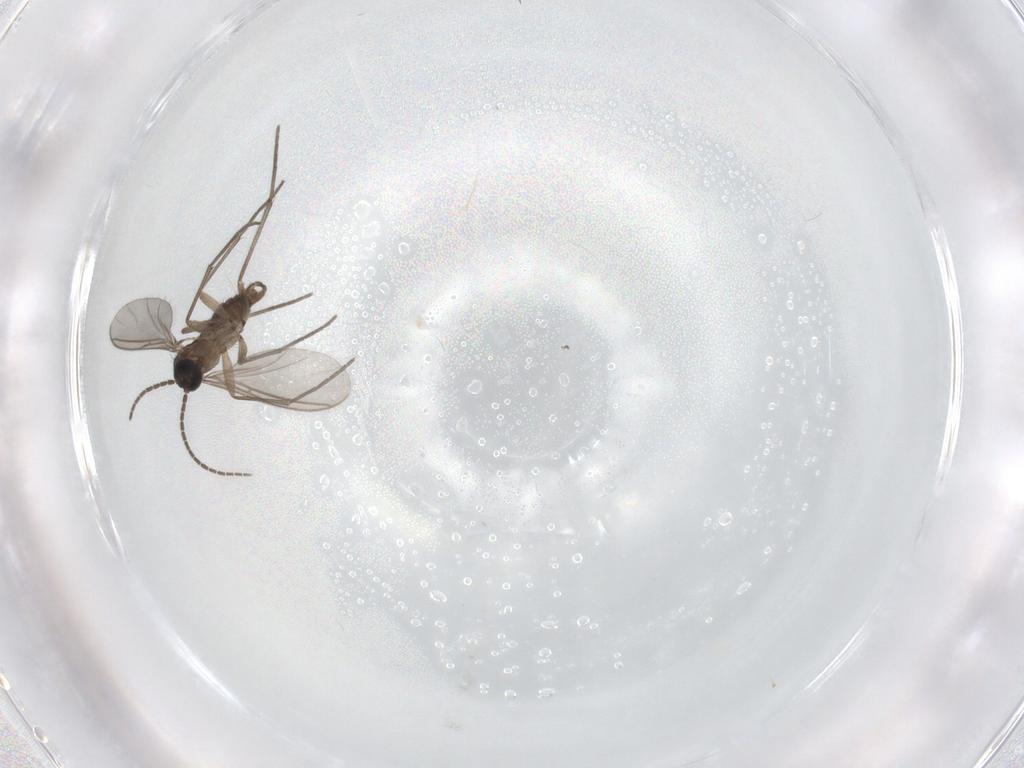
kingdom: Animalia
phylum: Arthropoda
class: Insecta
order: Diptera
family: Sciaridae
